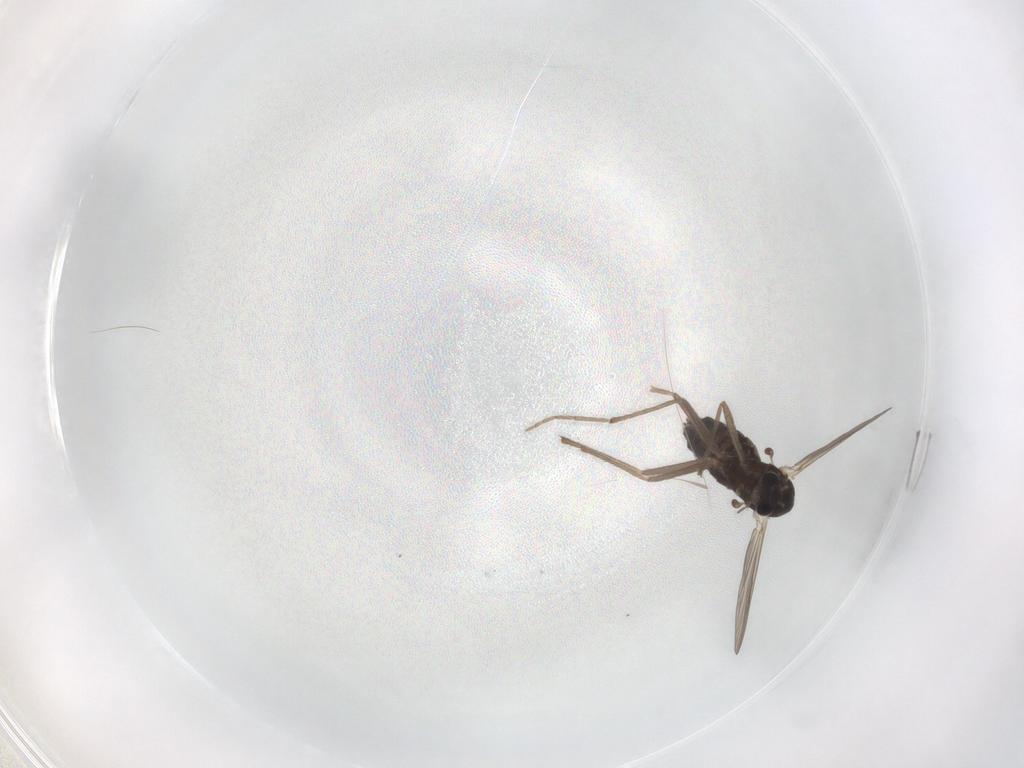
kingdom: Animalia
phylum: Arthropoda
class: Insecta
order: Diptera
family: Chironomidae
